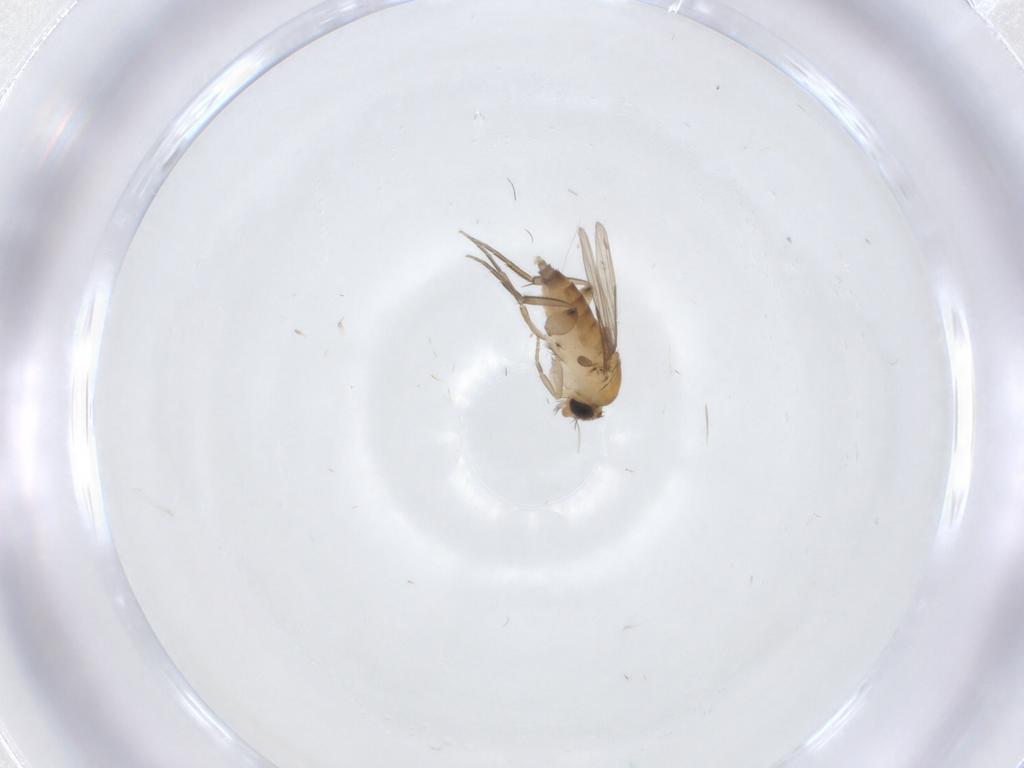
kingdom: Animalia
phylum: Arthropoda
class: Insecta
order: Diptera
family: Phoridae
